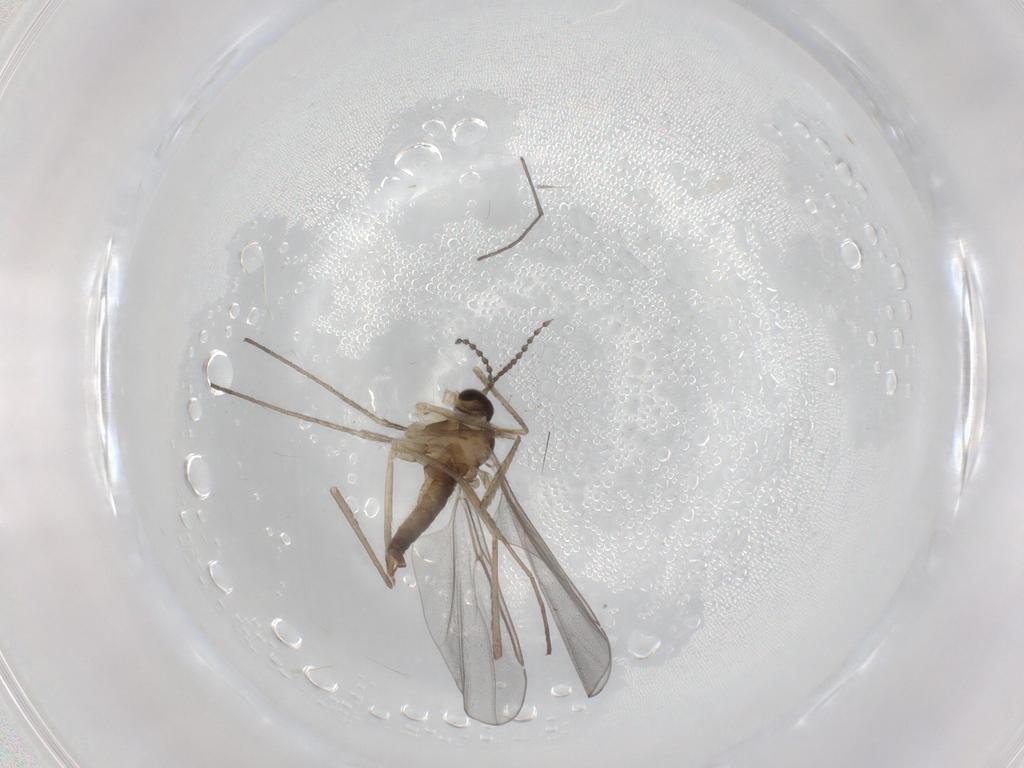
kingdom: Animalia
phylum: Arthropoda
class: Insecta
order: Diptera
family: Cecidomyiidae
